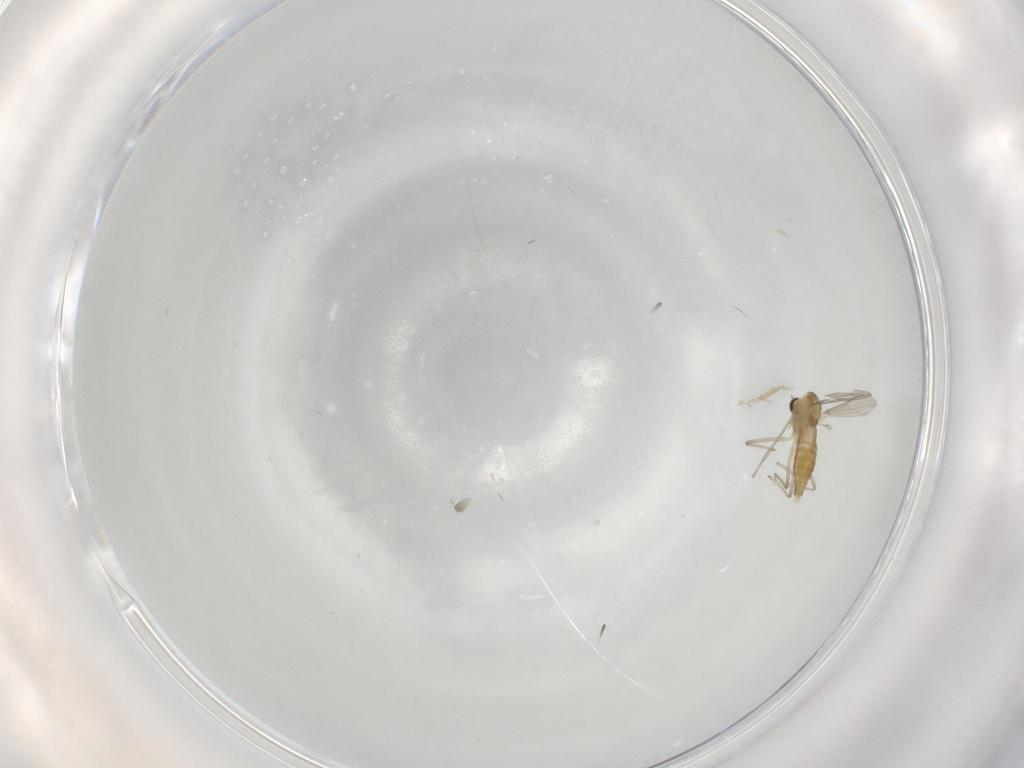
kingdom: Animalia
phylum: Arthropoda
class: Insecta
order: Diptera
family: Chironomidae
